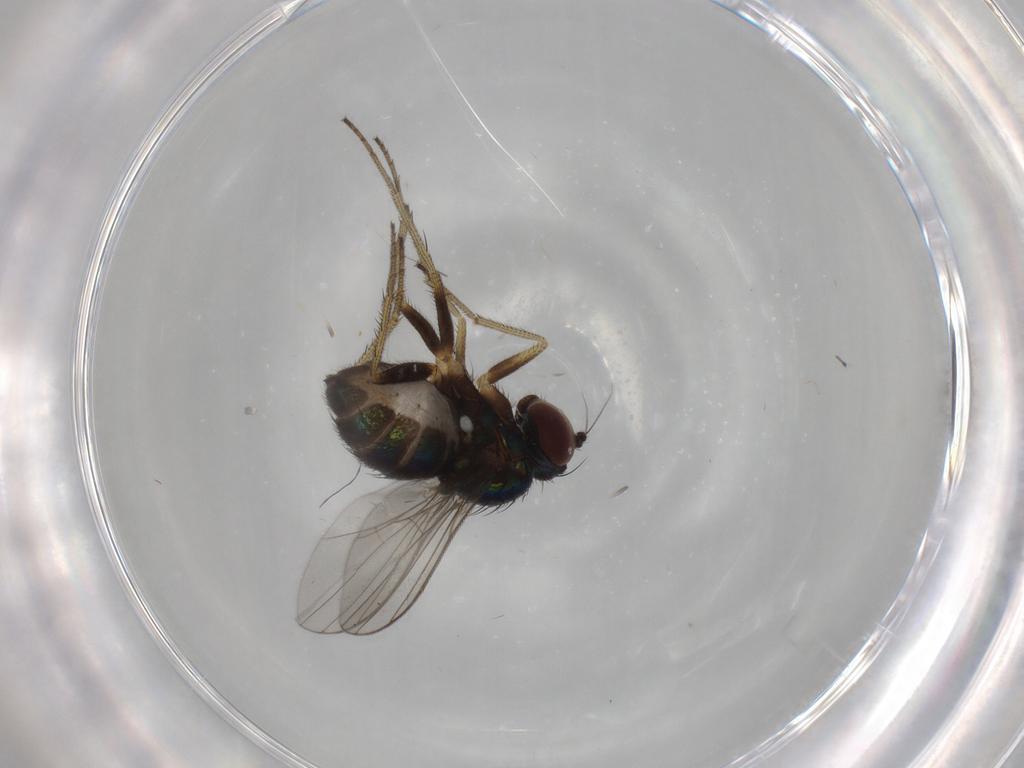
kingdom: Animalia
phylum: Arthropoda
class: Insecta
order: Diptera
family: Dolichopodidae
